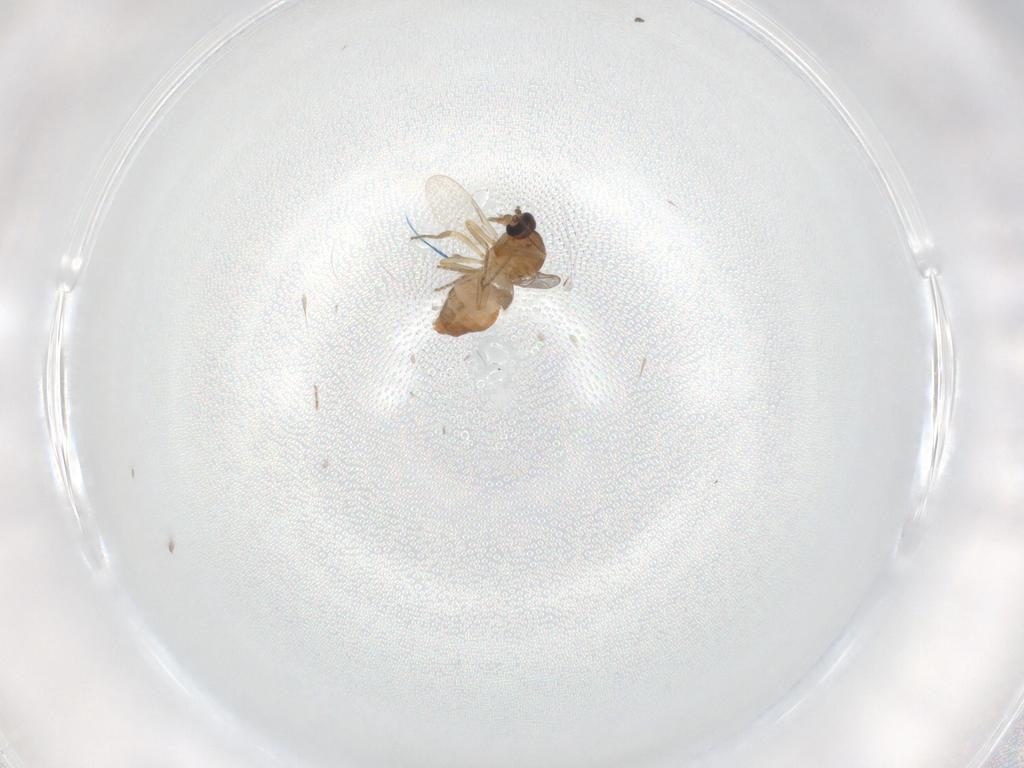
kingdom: Animalia
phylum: Arthropoda
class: Insecta
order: Diptera
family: Ceratopogonidae
